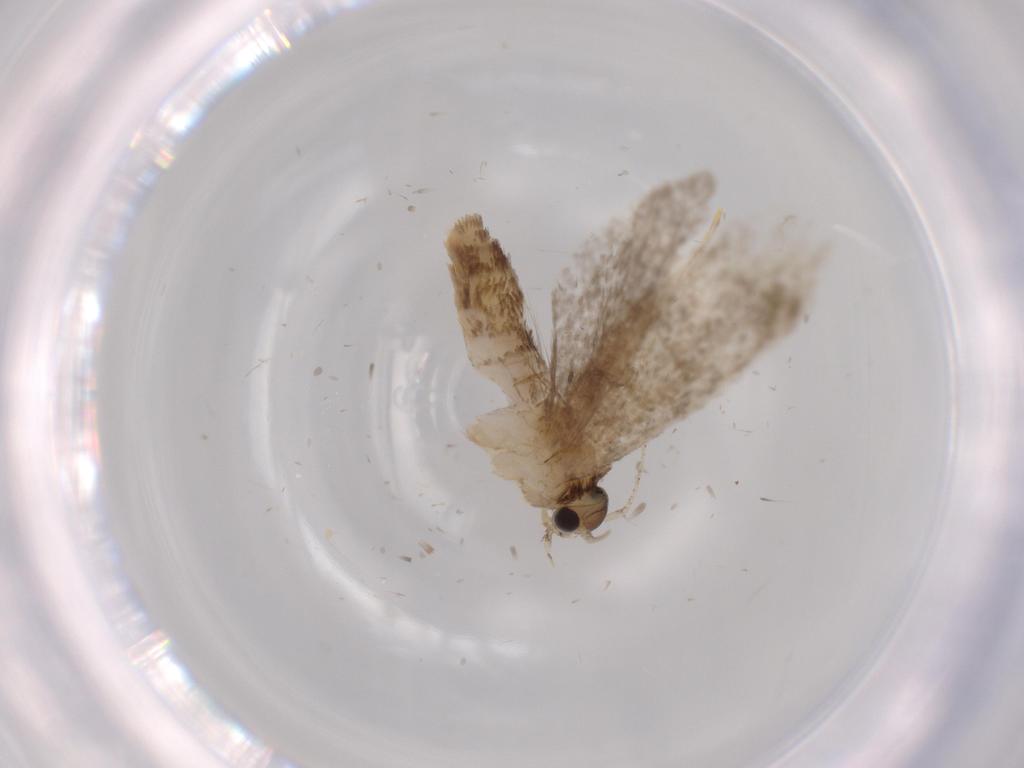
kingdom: Animalia
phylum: Arthropoda
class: Insecta
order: Lepidoptera
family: Tineidae
